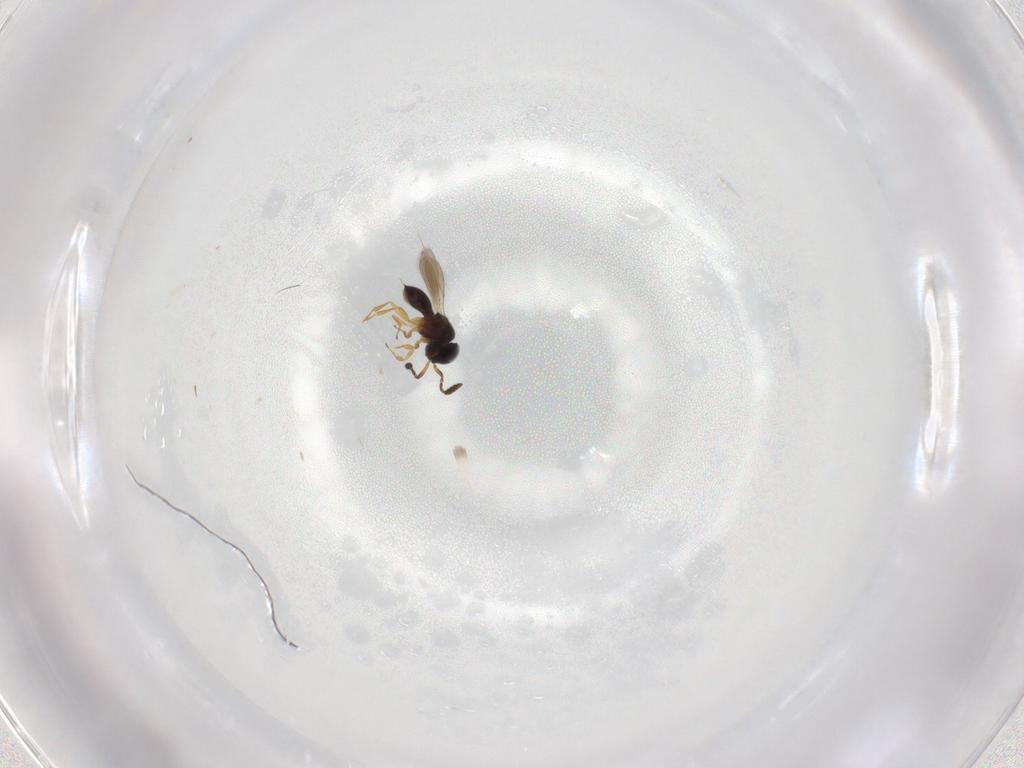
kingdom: Animalia
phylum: Arthropoda
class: Insecta
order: Hymenoptera
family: Scelionidae
